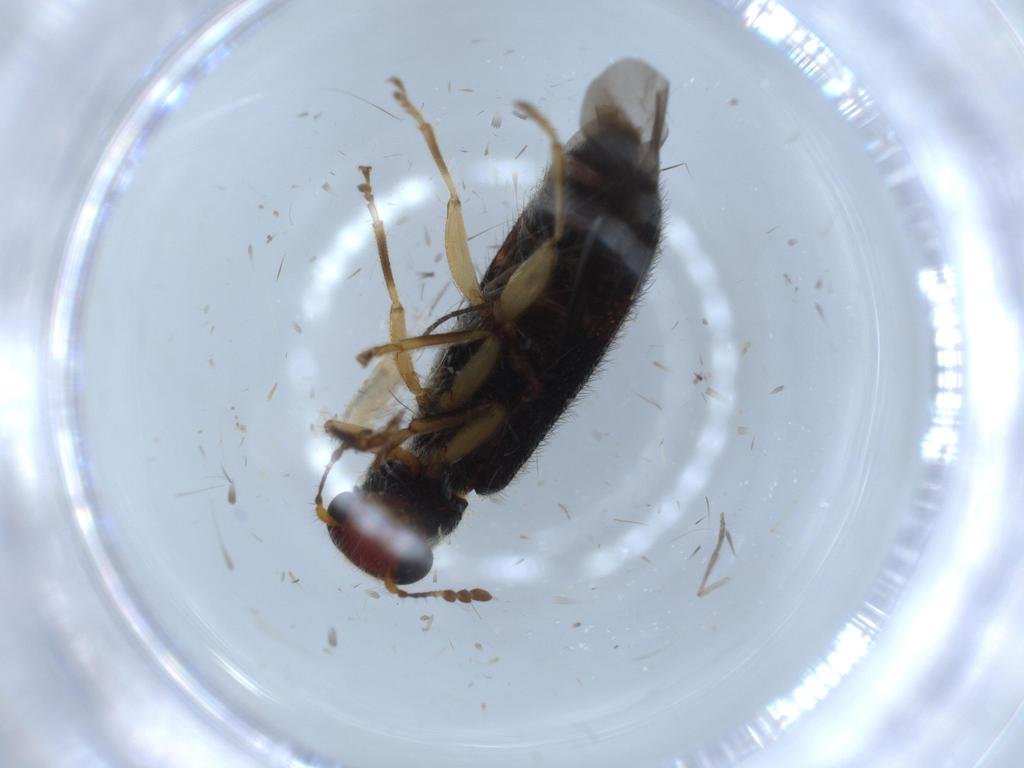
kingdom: Animalia
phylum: Arthropoda
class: Insecta
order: Coleoptera
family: Cleridae
